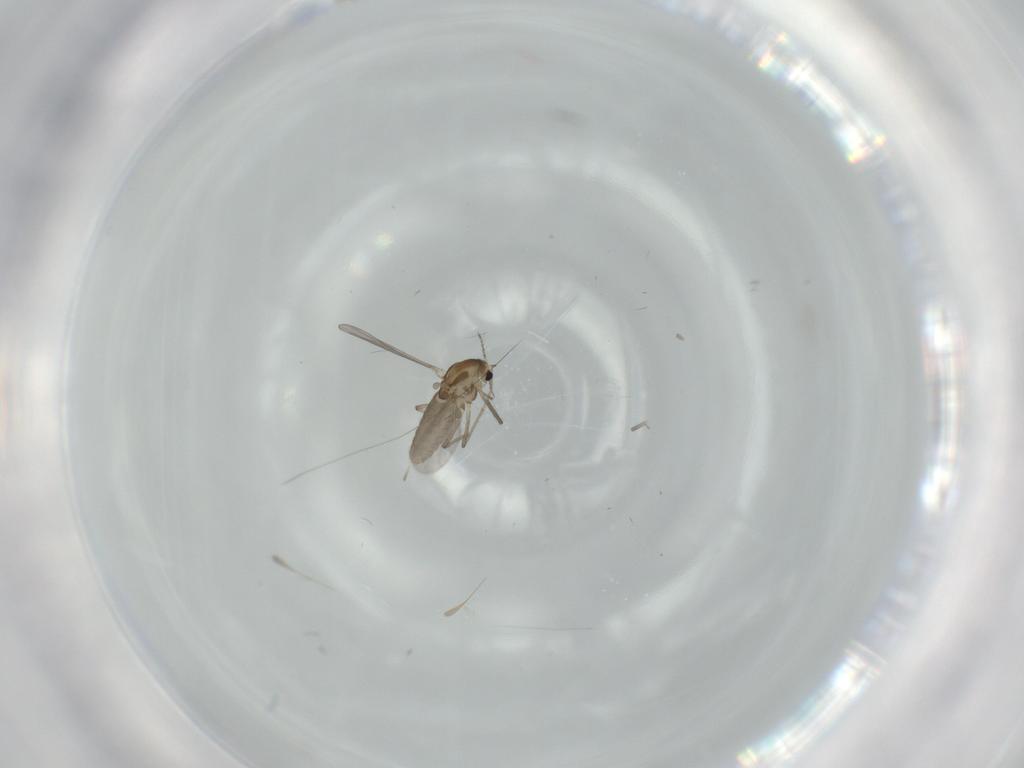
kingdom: Animalia
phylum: Arthropoda
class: Insecta
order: Diptera
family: Chironomidae
